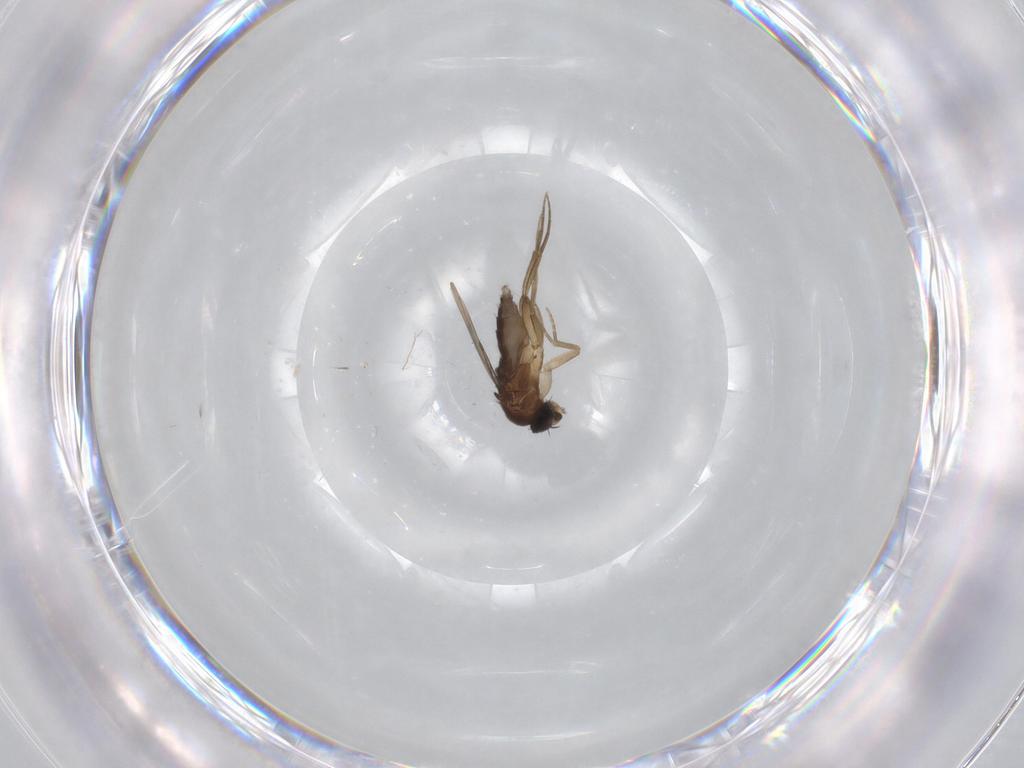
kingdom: Animalia
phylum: Arthropoda
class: Insecta
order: Diptera
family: Phoridae
